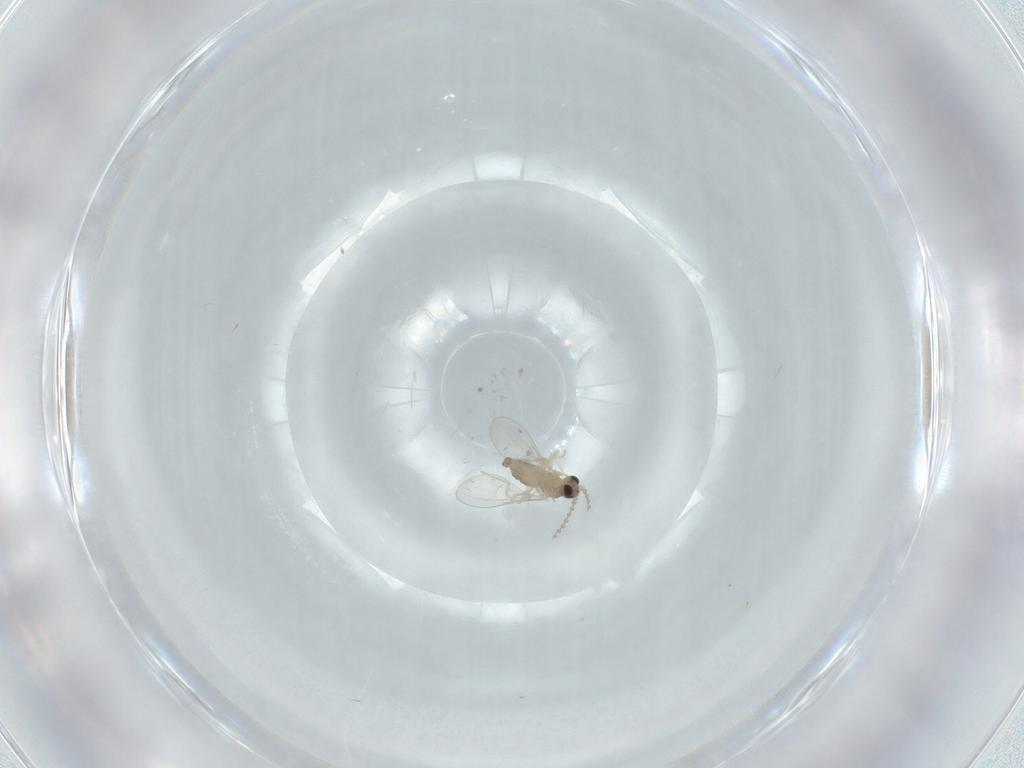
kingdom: Animalia
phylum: Arthropoda
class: Insecta
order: Diptera
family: Cecidomyiidae
